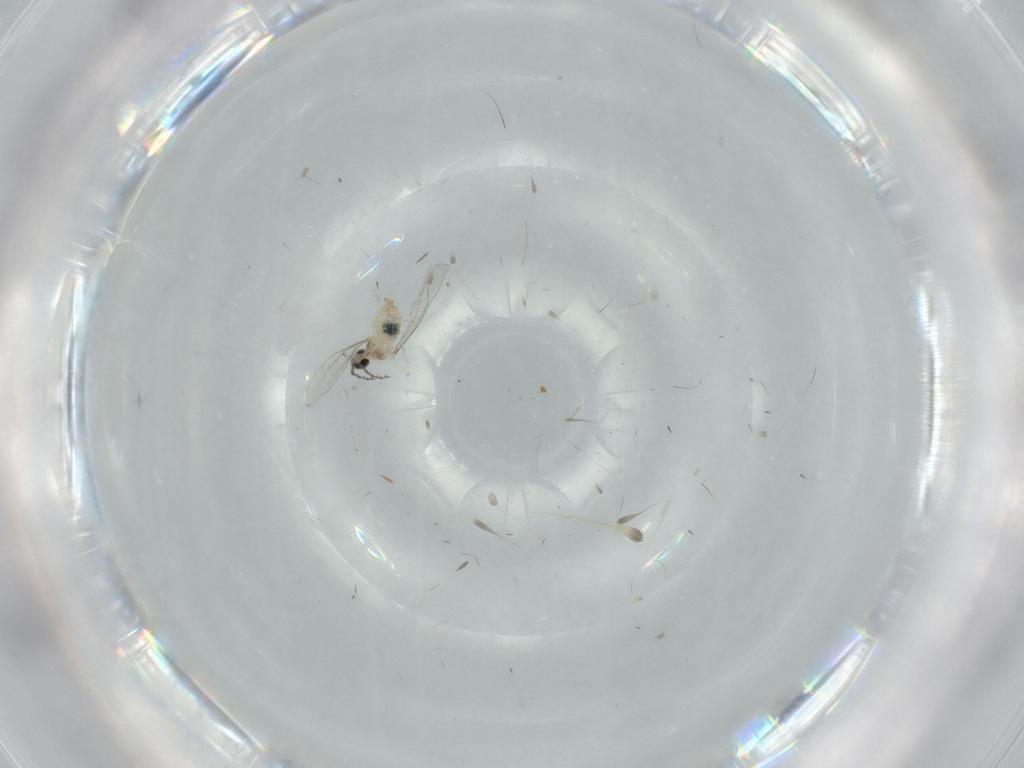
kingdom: Animalia
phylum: Arthropoda
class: Insecta
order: Diptera
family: Cecidomyiidae
